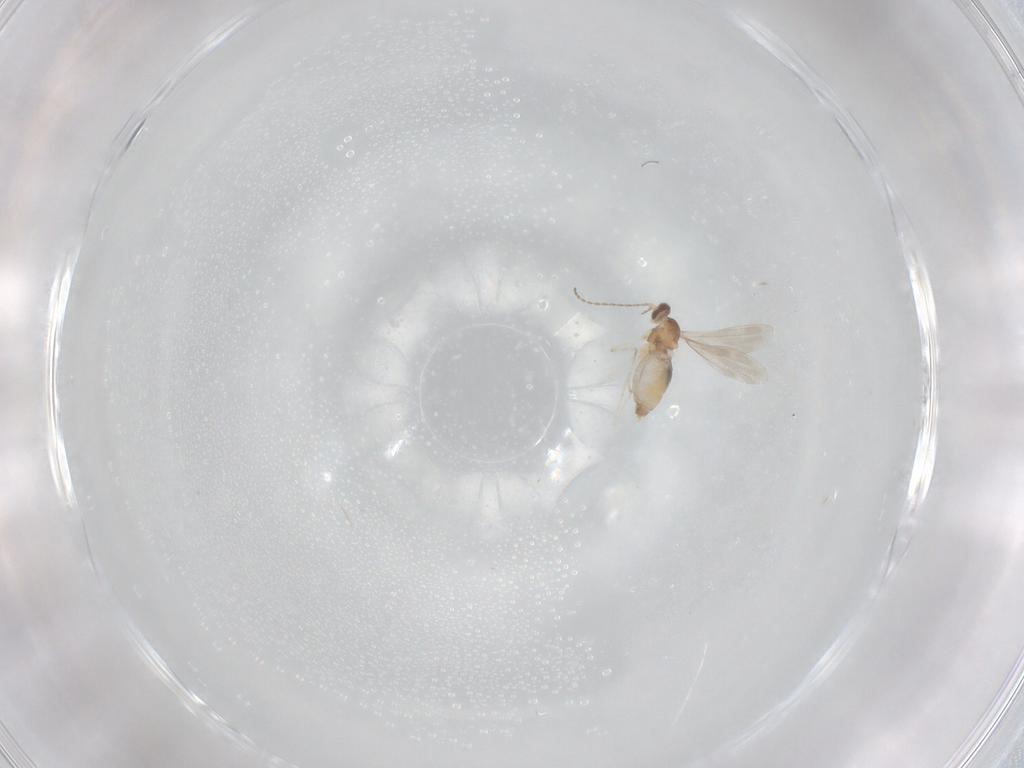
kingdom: Animalia
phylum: Arthropoda
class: Insecta
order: Diptera
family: Cecidomyiidae
